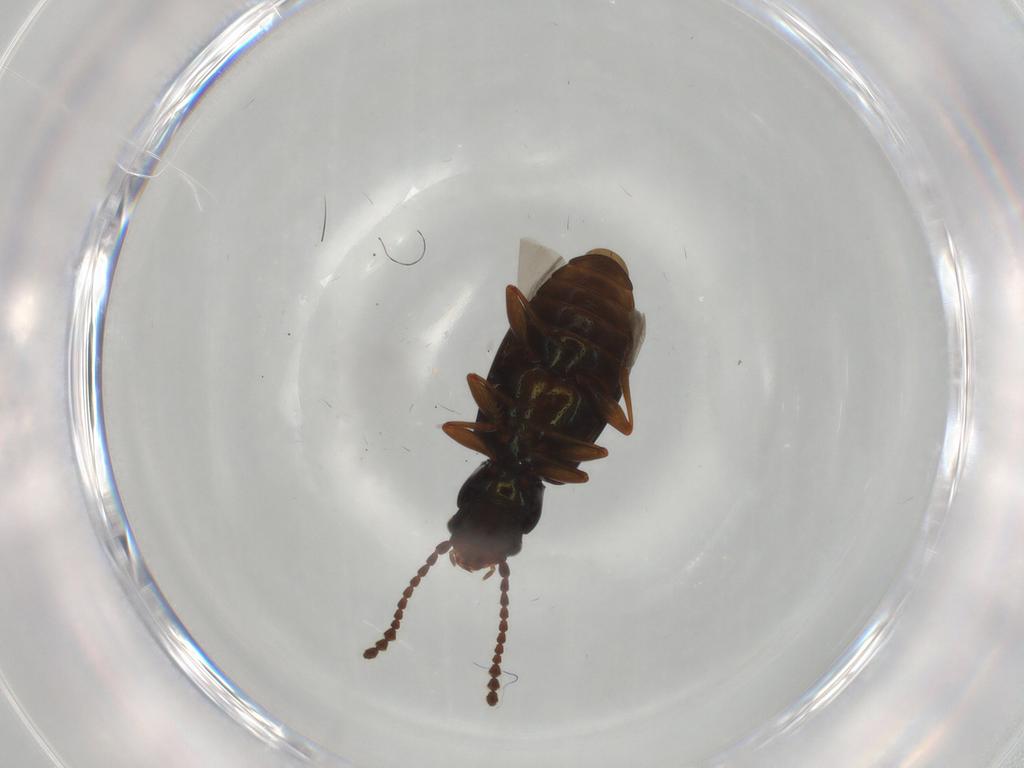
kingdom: Animalia
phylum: Arthropoda
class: Insecta
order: Coleoptera
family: Laemophloeidae
